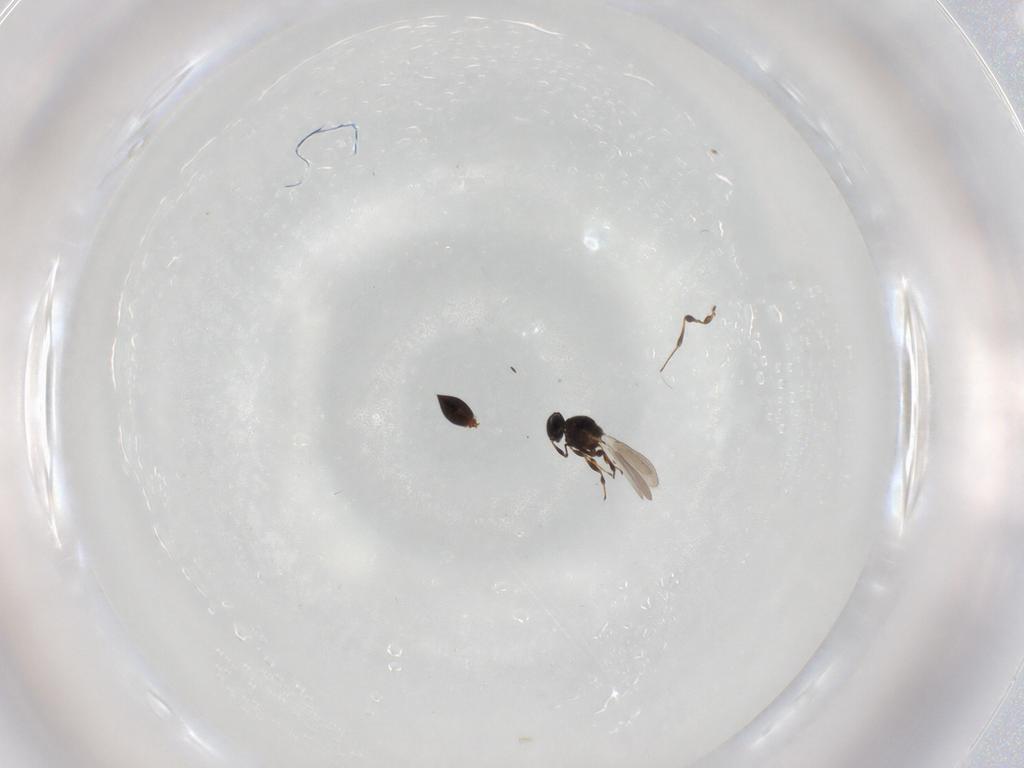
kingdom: Animalia
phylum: Arthropoda
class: Insecta
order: Hymenoptera
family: Platygastridae
